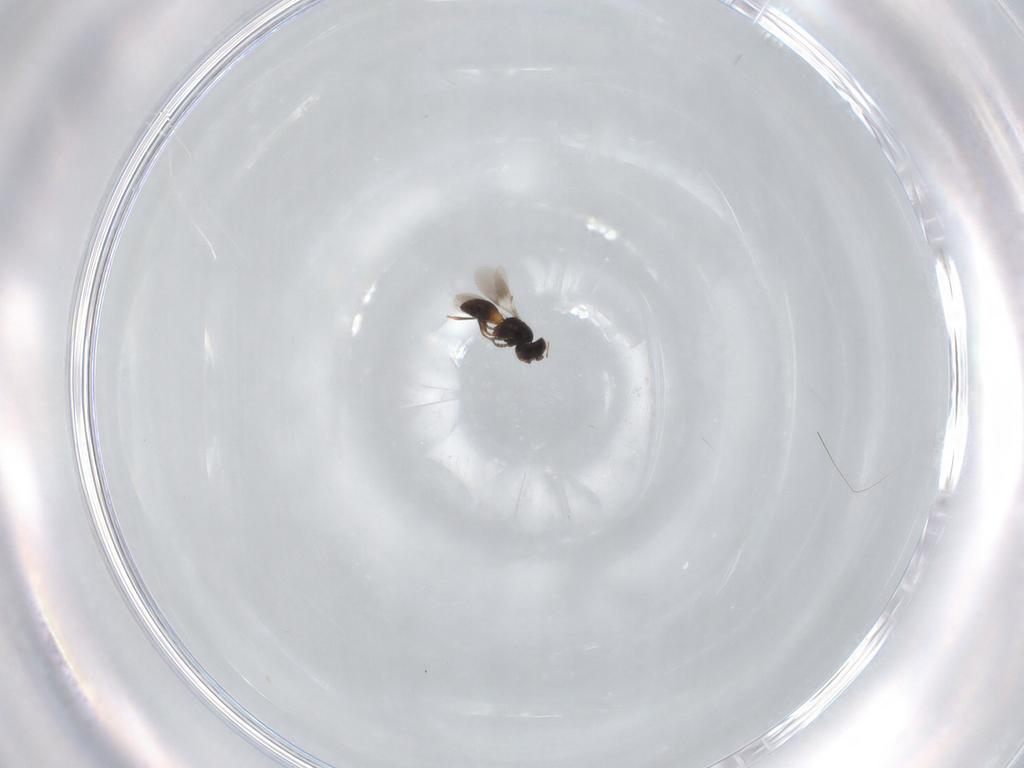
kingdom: Animalia
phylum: Arthropoda
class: Insecta
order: Hymenoptera
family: Scelionidae
